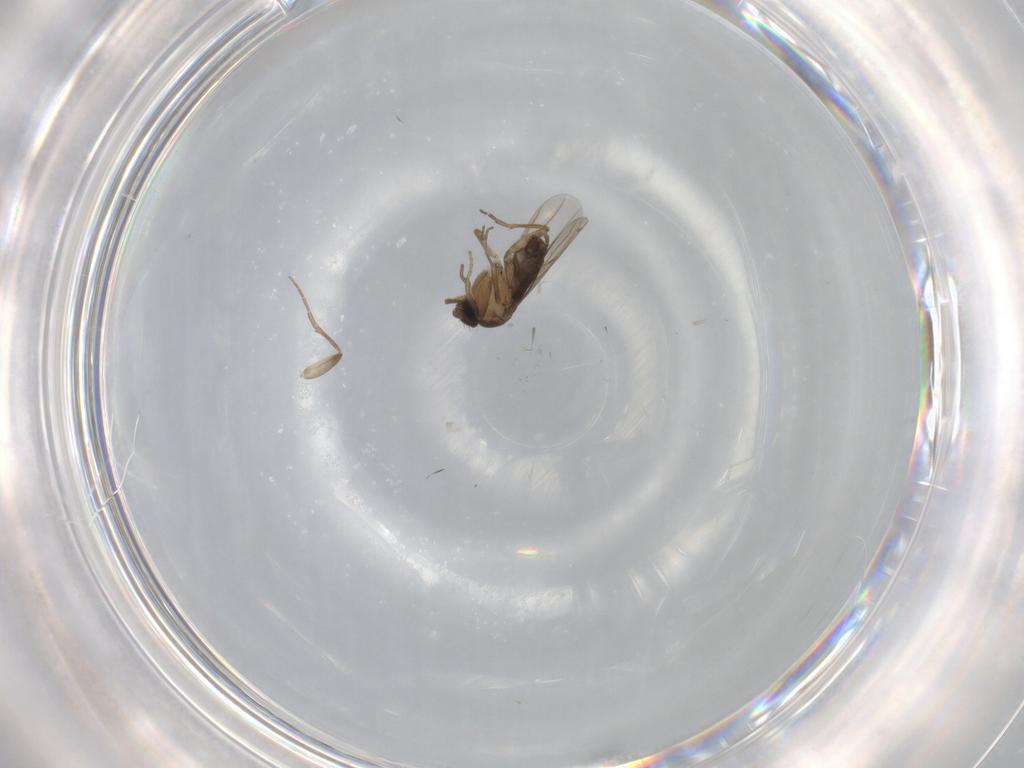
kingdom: Animalia
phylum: Arthropoda
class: Insecta
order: Diptera
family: Phoridae
